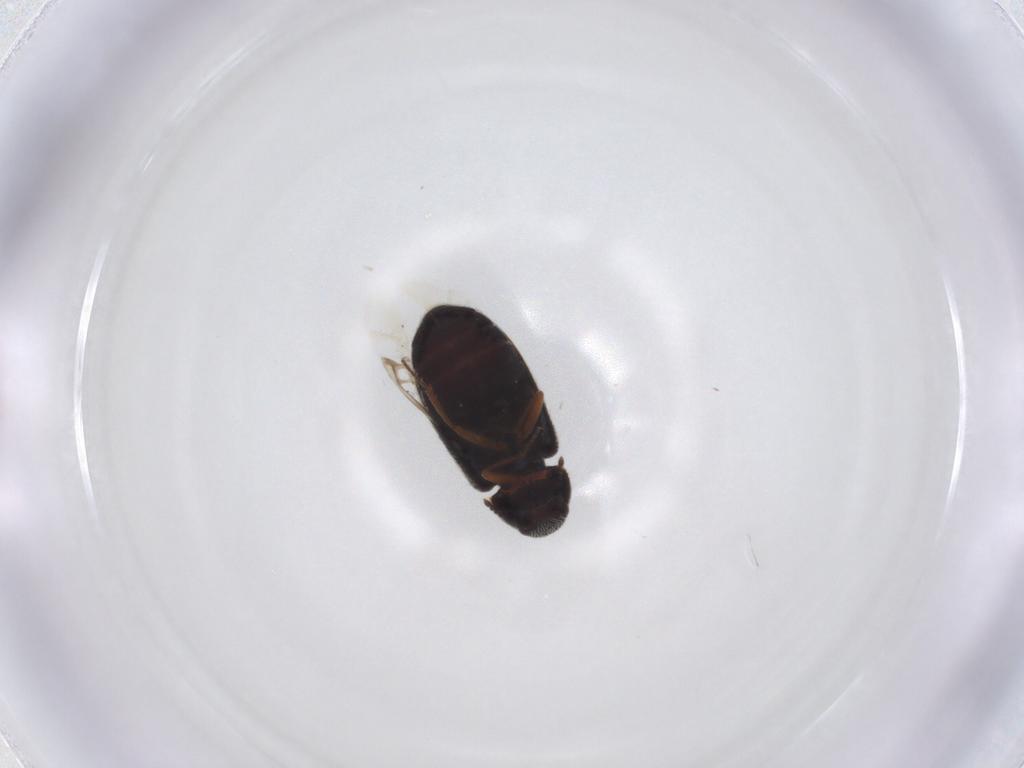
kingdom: Animalia
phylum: Arthropoda
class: Insecta
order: Coleoptera
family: Rhadalidae
